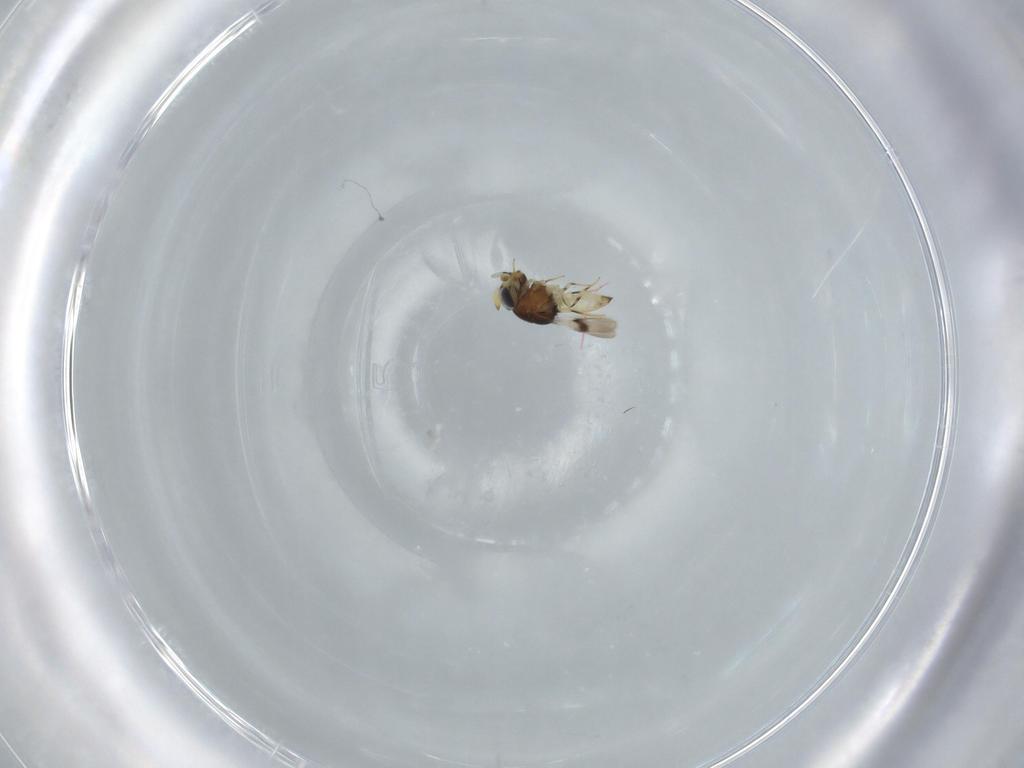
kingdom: Animalia
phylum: Arthropoda
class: Insecta
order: Hymenoptera
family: Scelionidae
